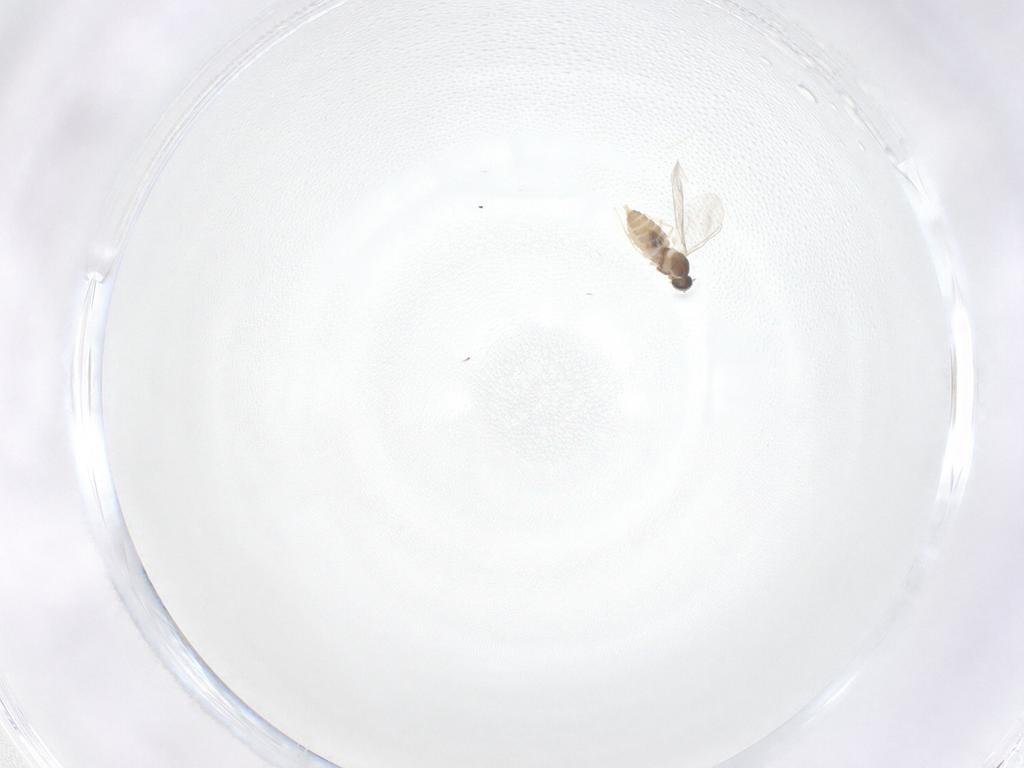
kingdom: Animalia
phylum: Arthropoda
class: Insecta
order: Diptera
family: Cecidomyiidae
